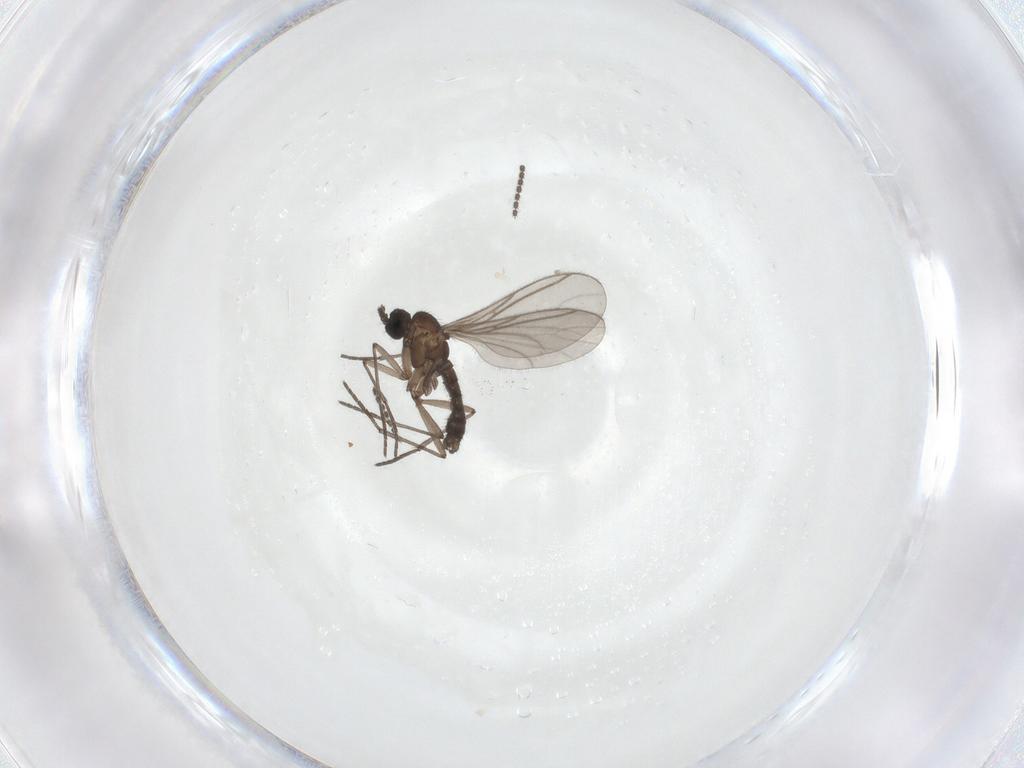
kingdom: Animalia
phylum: Arthropoda
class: Insecta
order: Diptera
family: Sciaridae
